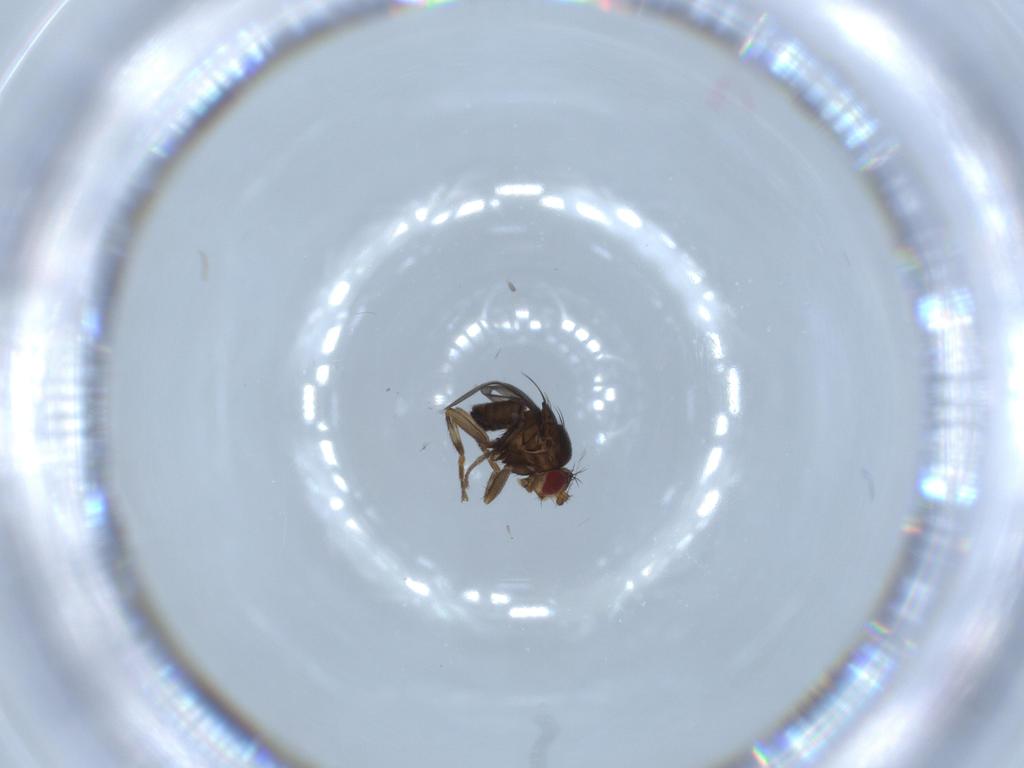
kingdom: Animalia
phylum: Arthropoda
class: Insecta
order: Diptera
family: Sphaeroceridae
